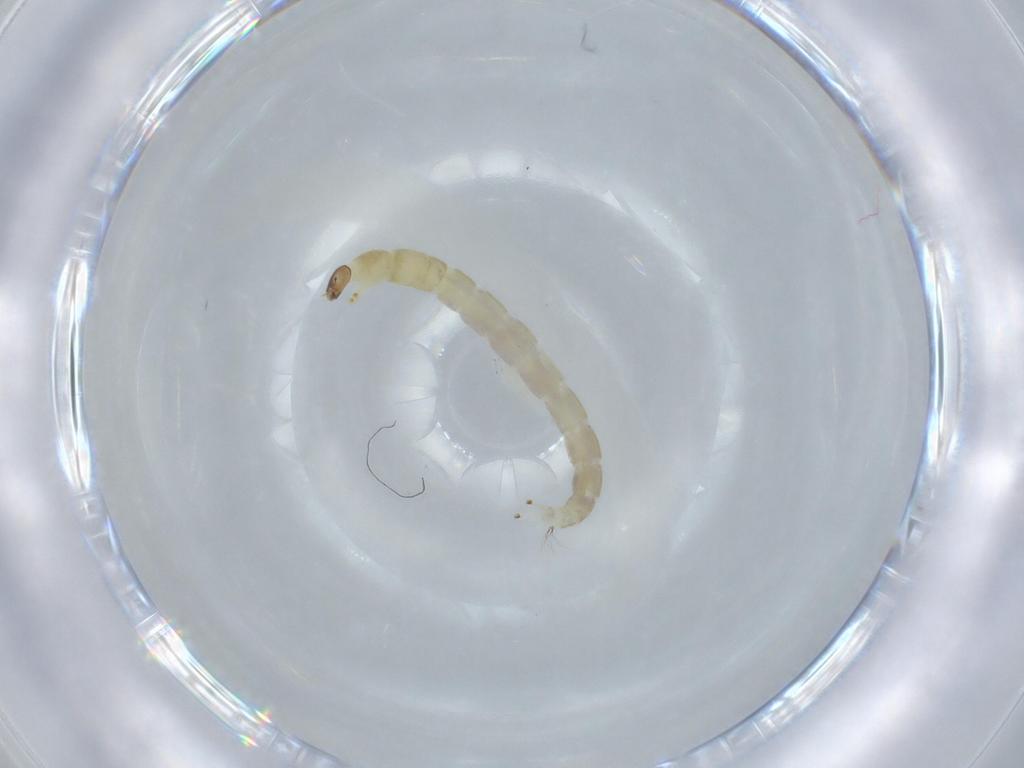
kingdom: Animalia
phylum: Arthropoda
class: Insecta
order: Diptera
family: Chironomidae
